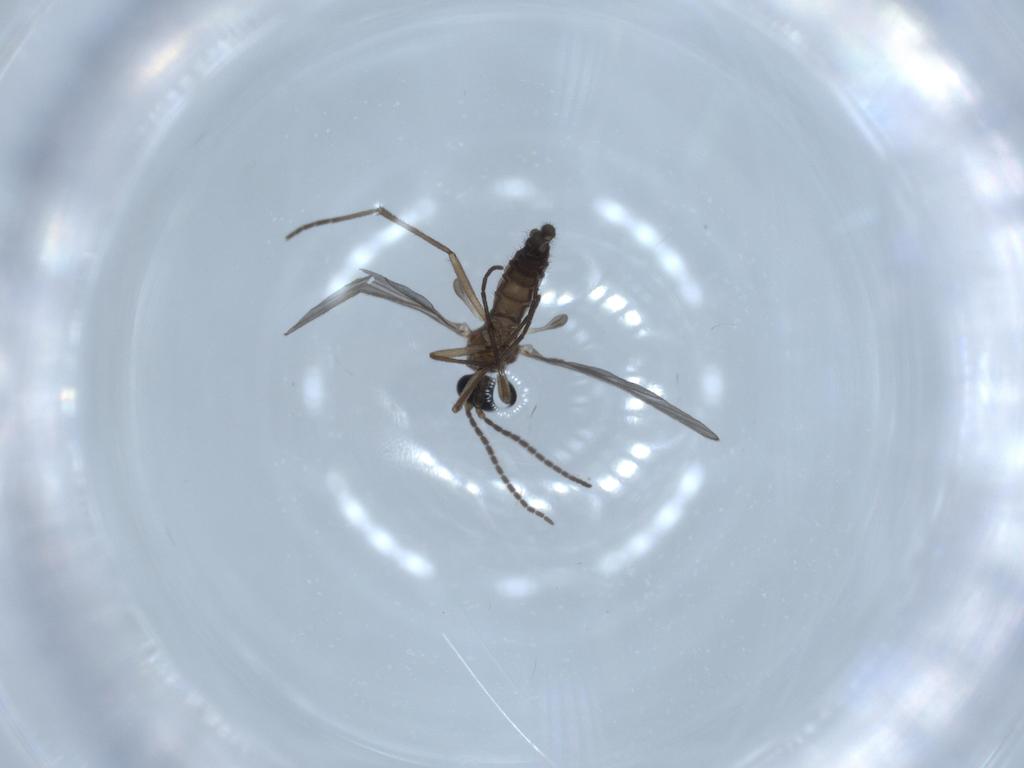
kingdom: Animalia
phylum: Arthropoda
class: Insecta
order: Diptera
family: Sciaridae
